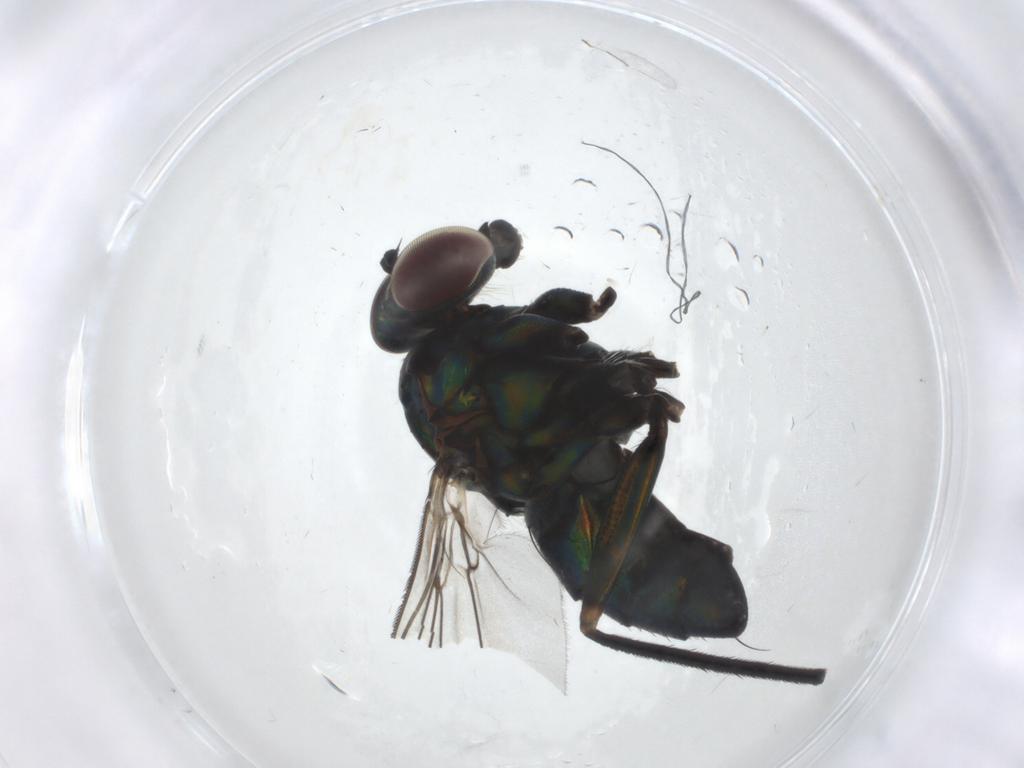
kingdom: Animalia
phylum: Arthropoda
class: Insecta
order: Diptera
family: Dolichopodidae
